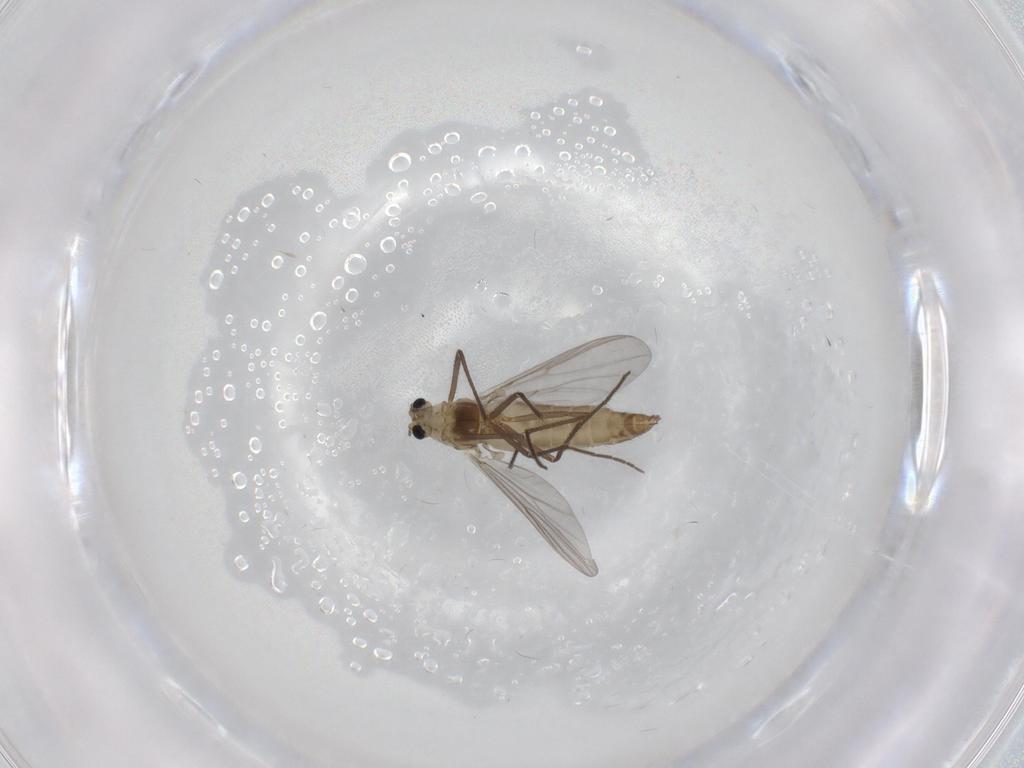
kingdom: Animalia
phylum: Arthropoda
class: Insecta
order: Diptera
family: Chironomidae
